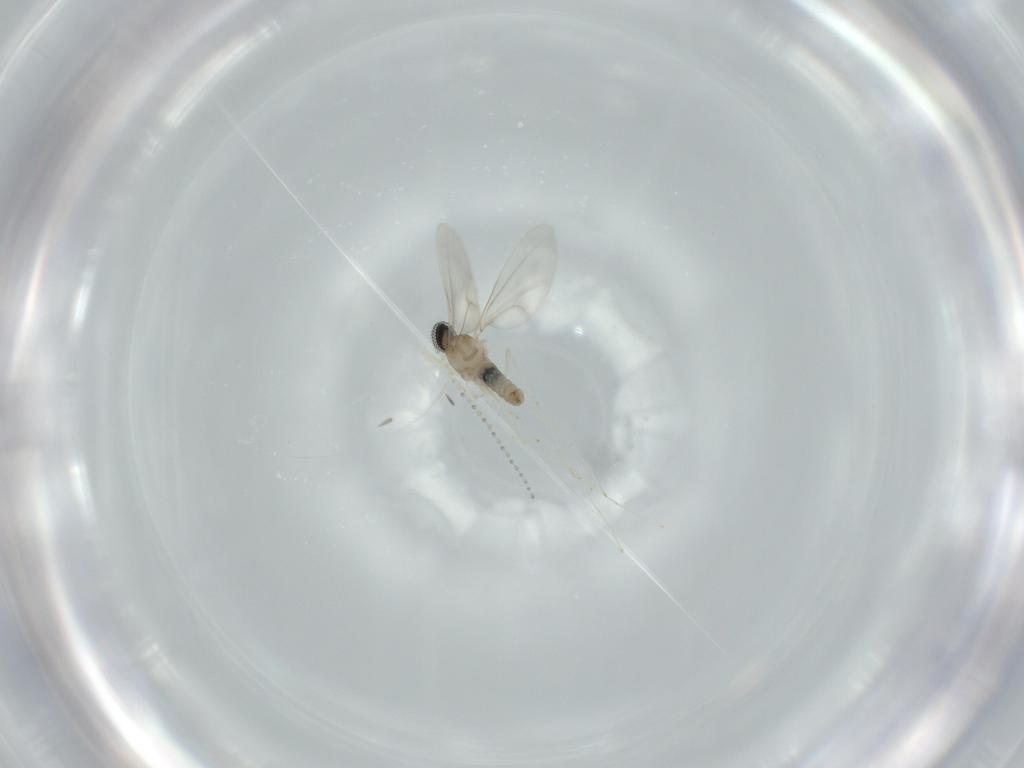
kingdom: Animalia
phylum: Arthropoda
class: Insecta
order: Diptera
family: Cecidomyiidae
